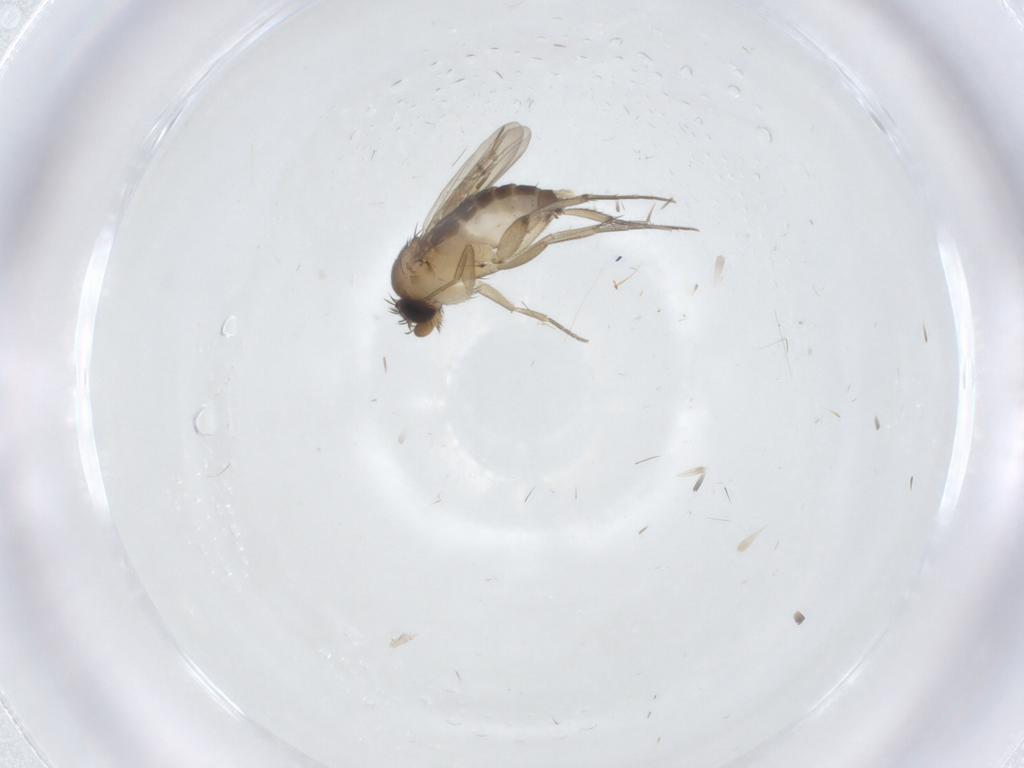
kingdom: Animalia
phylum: Arthropoda
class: Insecta
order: Diptera
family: Phoridae
